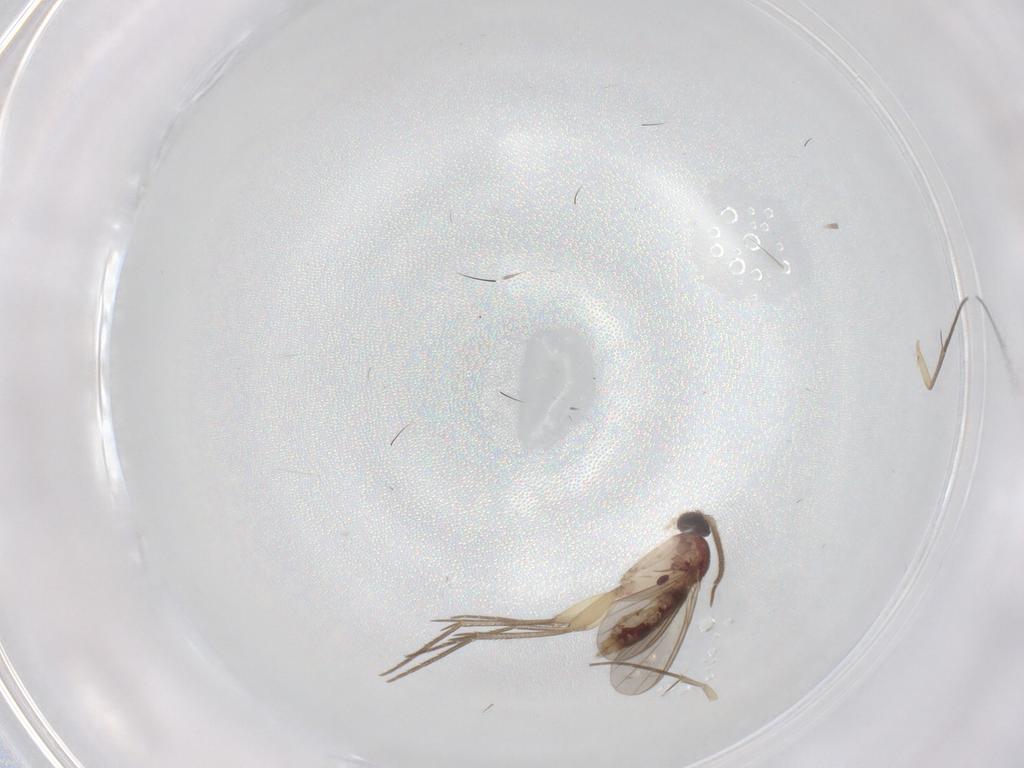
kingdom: Animalia
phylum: Arthropoda
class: Insecta
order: Diptera
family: Mycetophilidae
